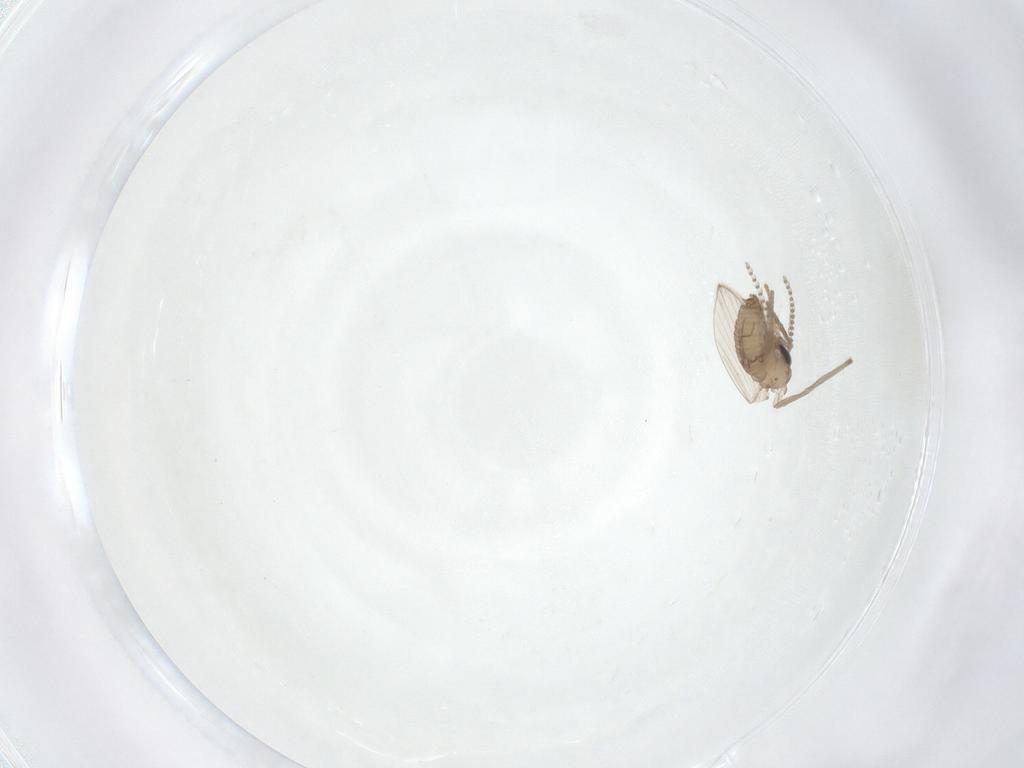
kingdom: Animalia
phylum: Arthropoda
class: Insecta
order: Diptera
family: Psychodidae
